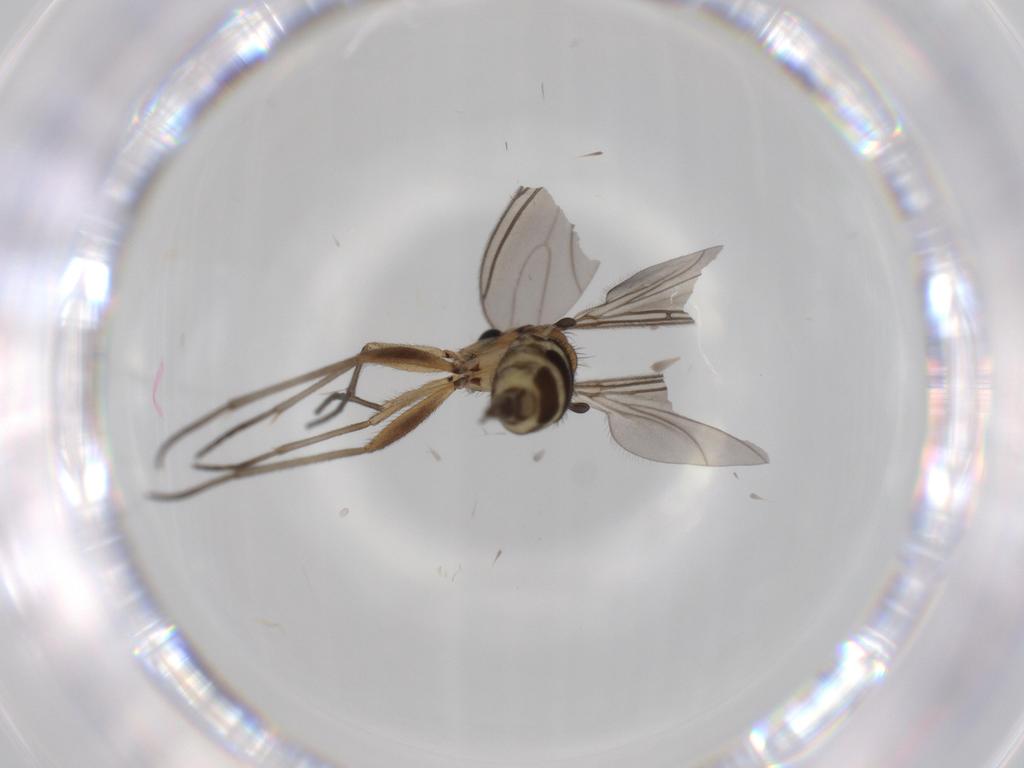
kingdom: Animalia
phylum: Arthropoda
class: Insecta
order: Diptera
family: Sciaridae
